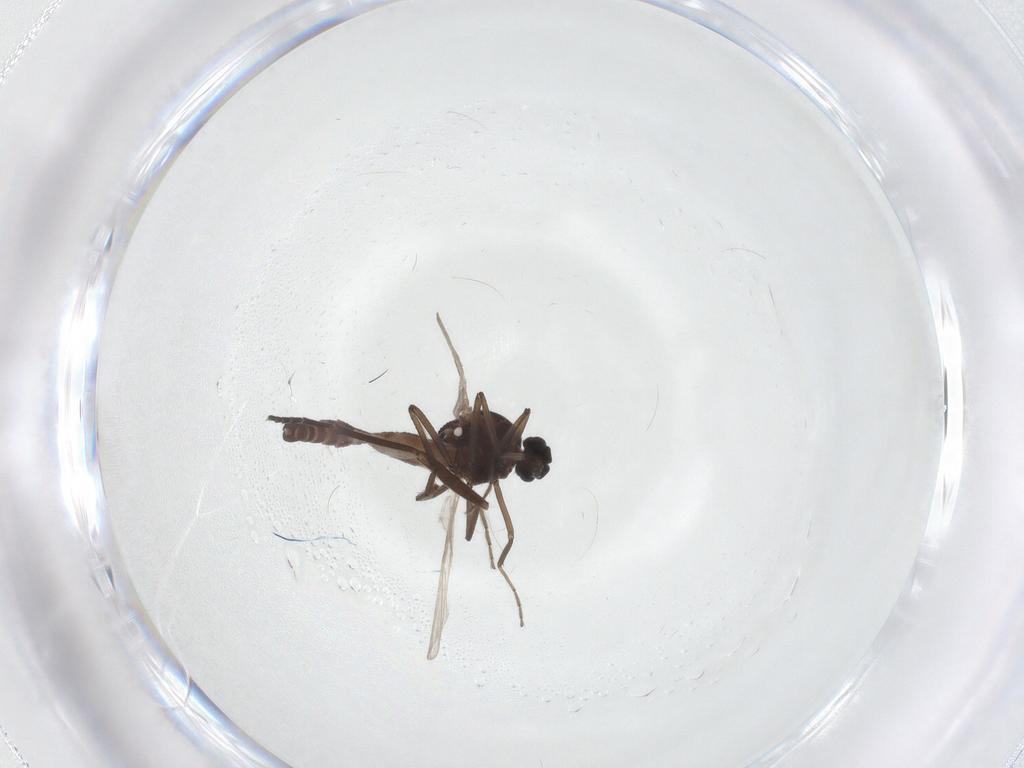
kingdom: Animalia
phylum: Arthropoda
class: Insecta
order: Diptera
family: Ceratopogonidae
